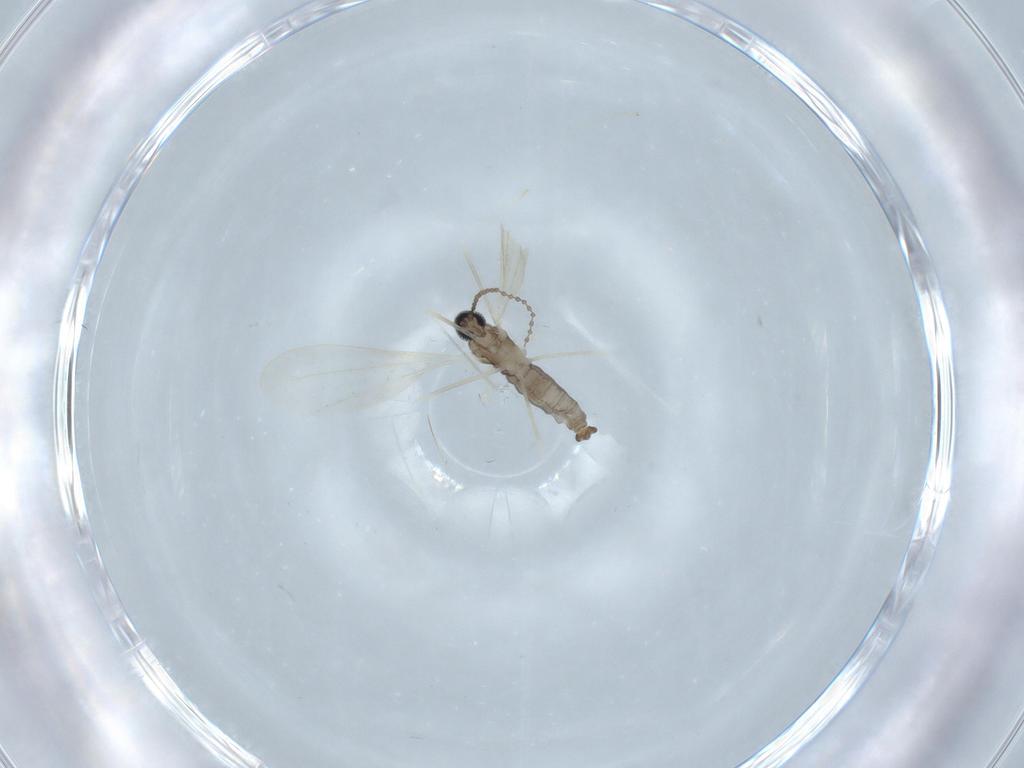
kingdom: Animalia
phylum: Arthropoda
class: Insecta
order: Diptera
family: Cecidomyiidae
